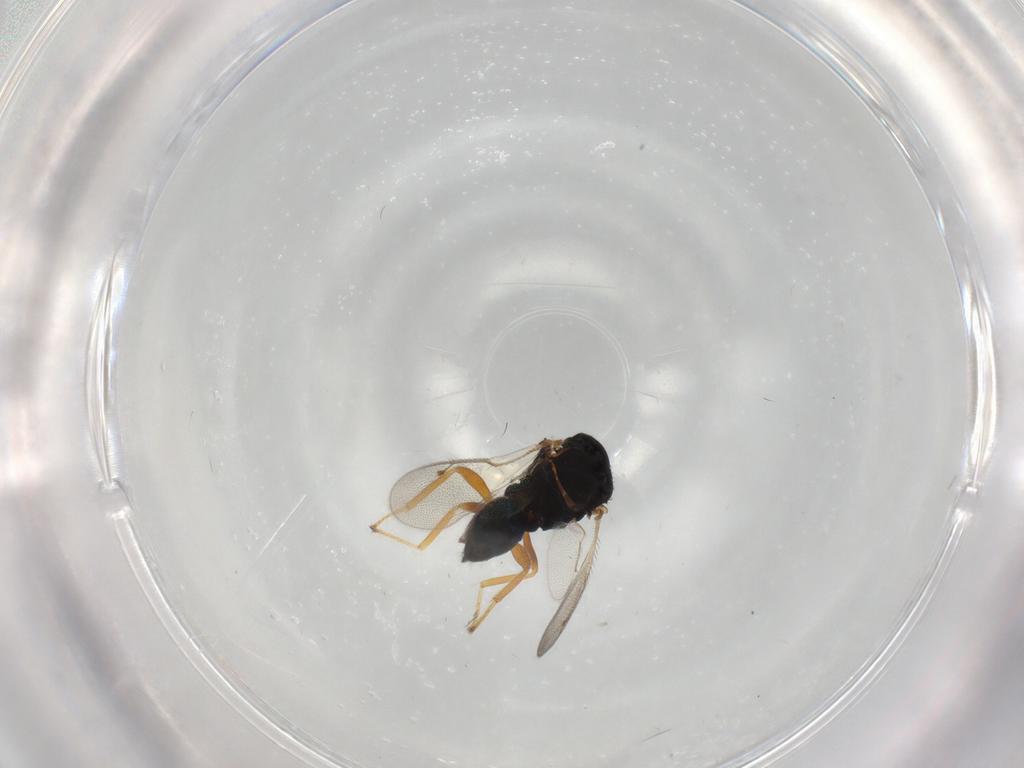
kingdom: Animalia
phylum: Arthropoda
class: Insecta
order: Hymenoptera
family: Pteromalidae
